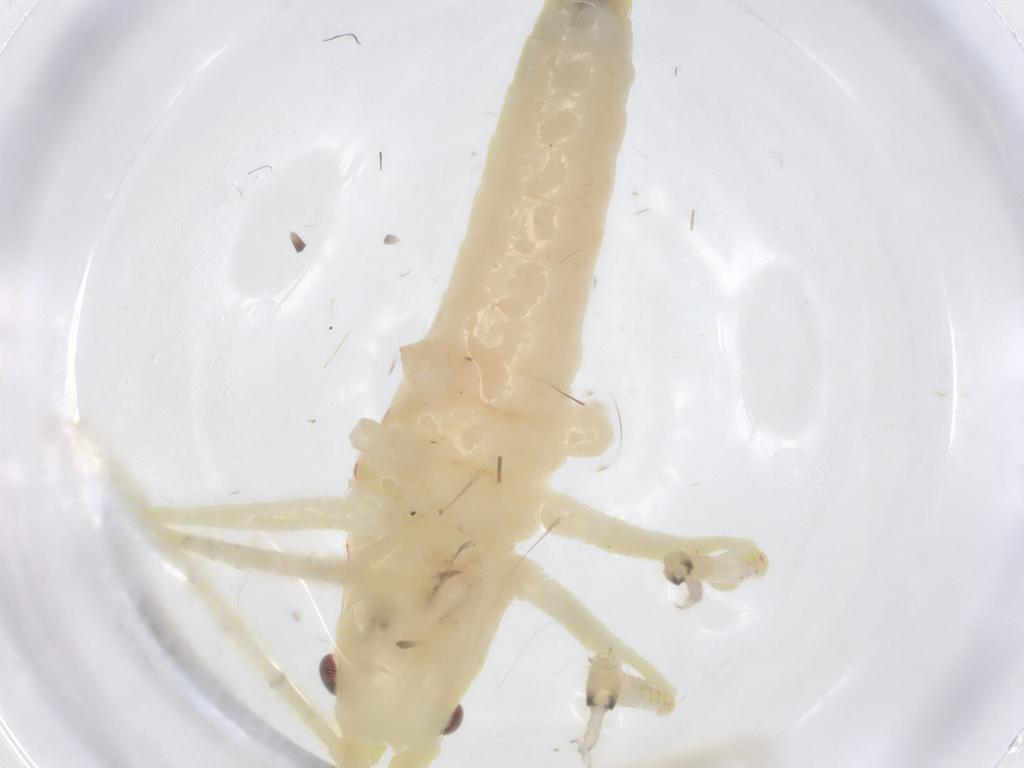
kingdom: Animalia
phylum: Arthropoda
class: Insecta
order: Orthoptera
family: Tettigoniidae
